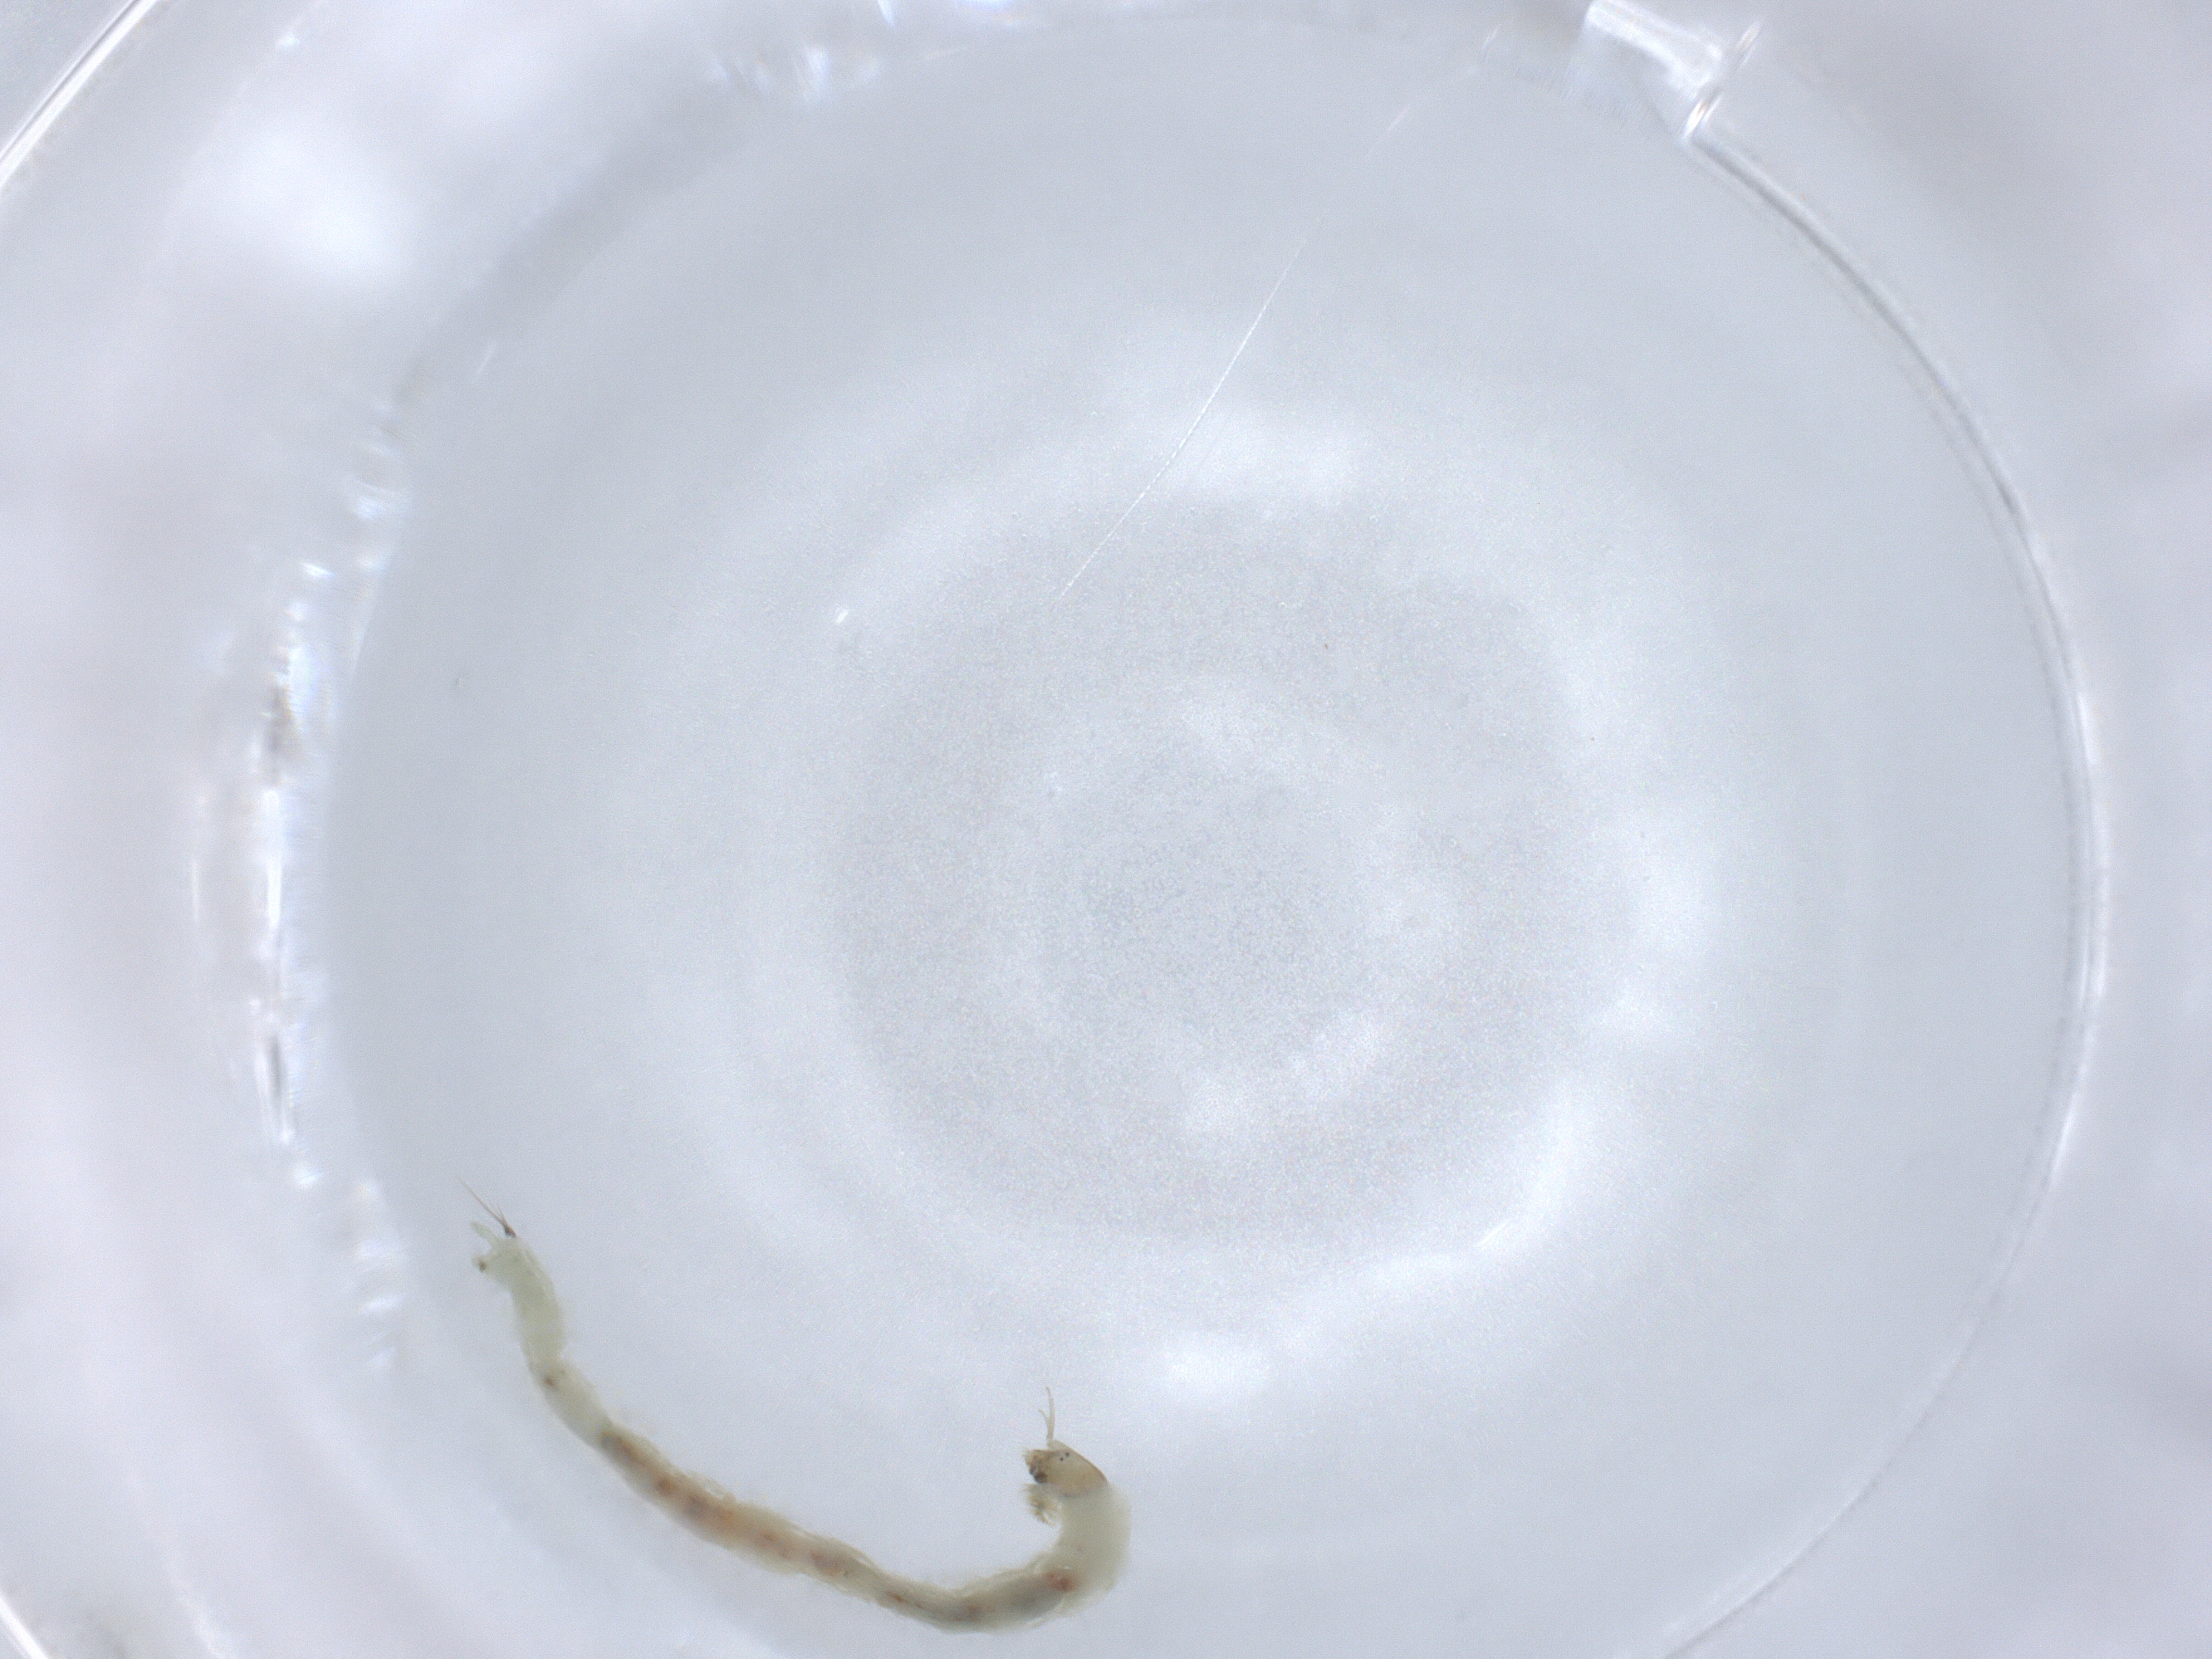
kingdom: Animalia
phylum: Arthropoda
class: Insecta
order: Diptera
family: Chironomidae
